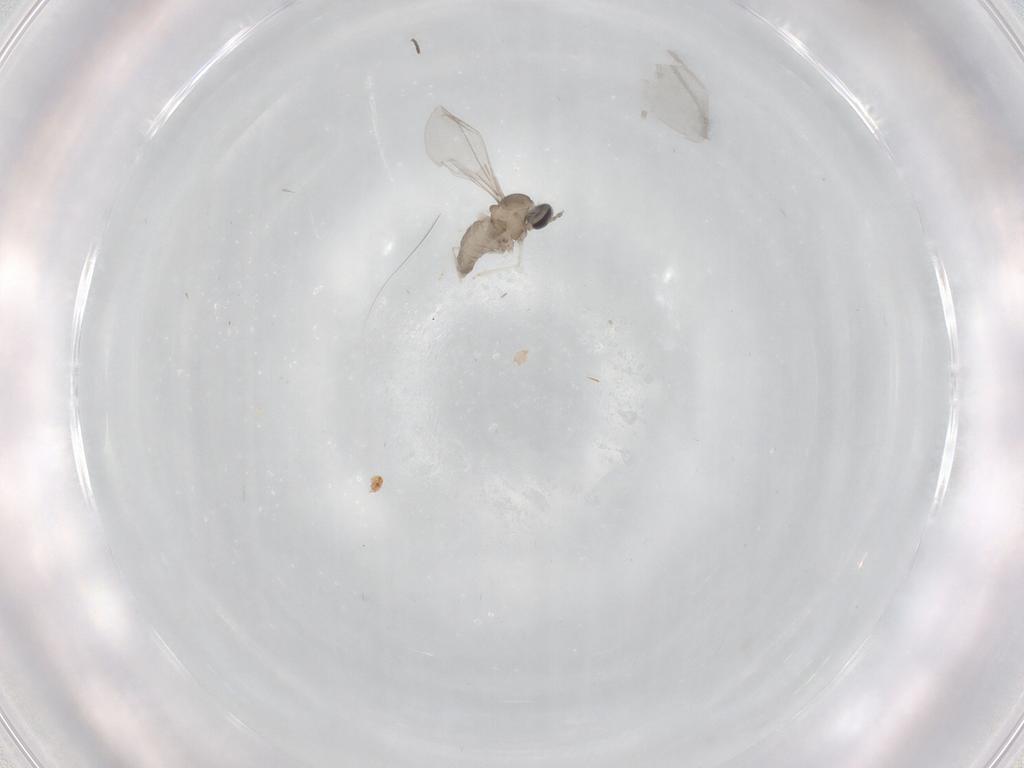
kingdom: Animalia
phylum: Arthropoda
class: Insecta
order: Diptera
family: Cecidomyiidae
